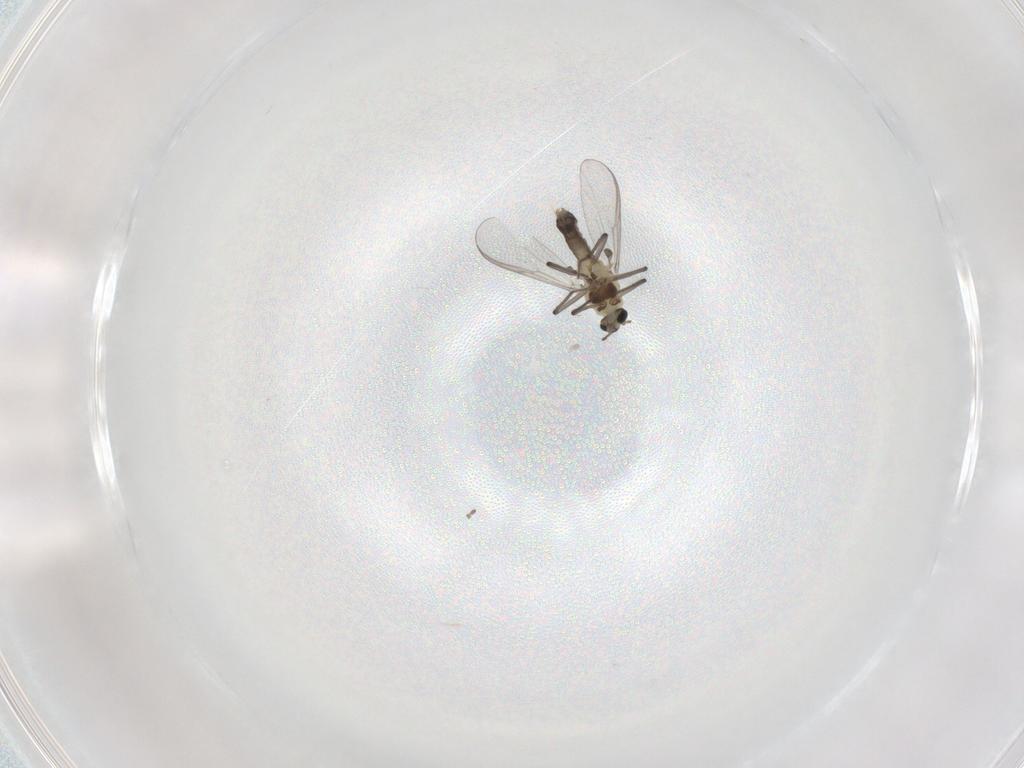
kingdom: Animalia
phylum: Arthropoda
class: Insecta
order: Diptera
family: Chironomidae
